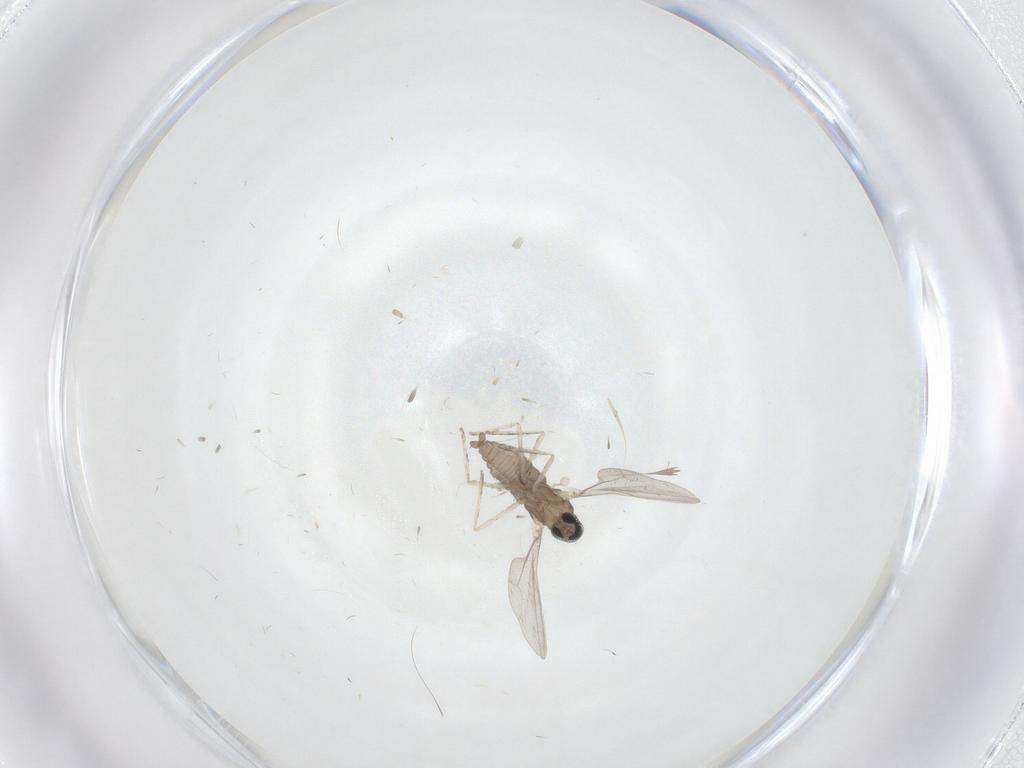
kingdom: Animalia
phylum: Arthropoda
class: Insecta
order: Diptera
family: Cecidomyiidae
